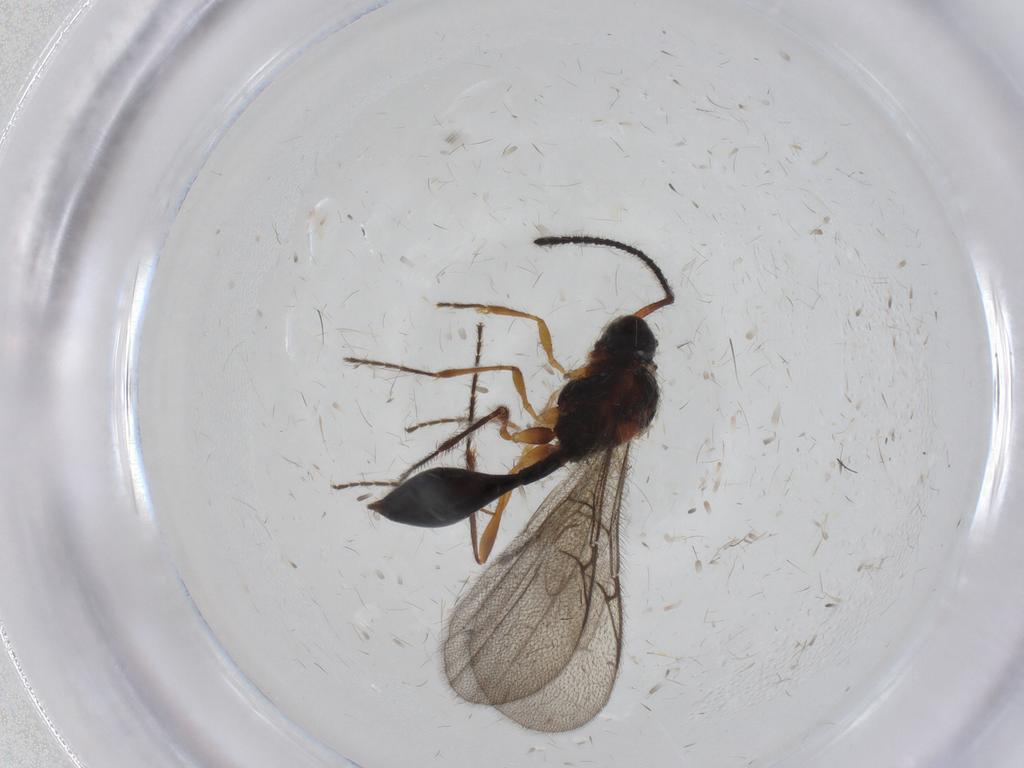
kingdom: Animalia
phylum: Arthropoda
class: Insecta
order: Hymenoptera
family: Diapriidae
